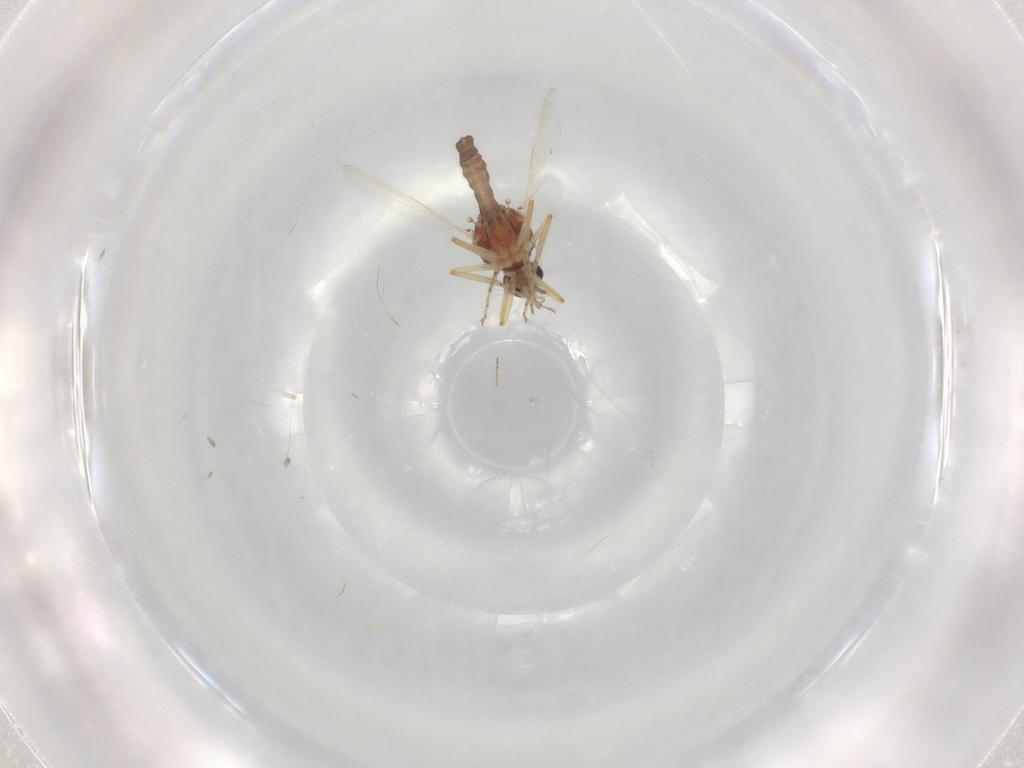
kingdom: Animalia
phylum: Arthropoda
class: Insecta
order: Diptera
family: Ceratopogonidae
